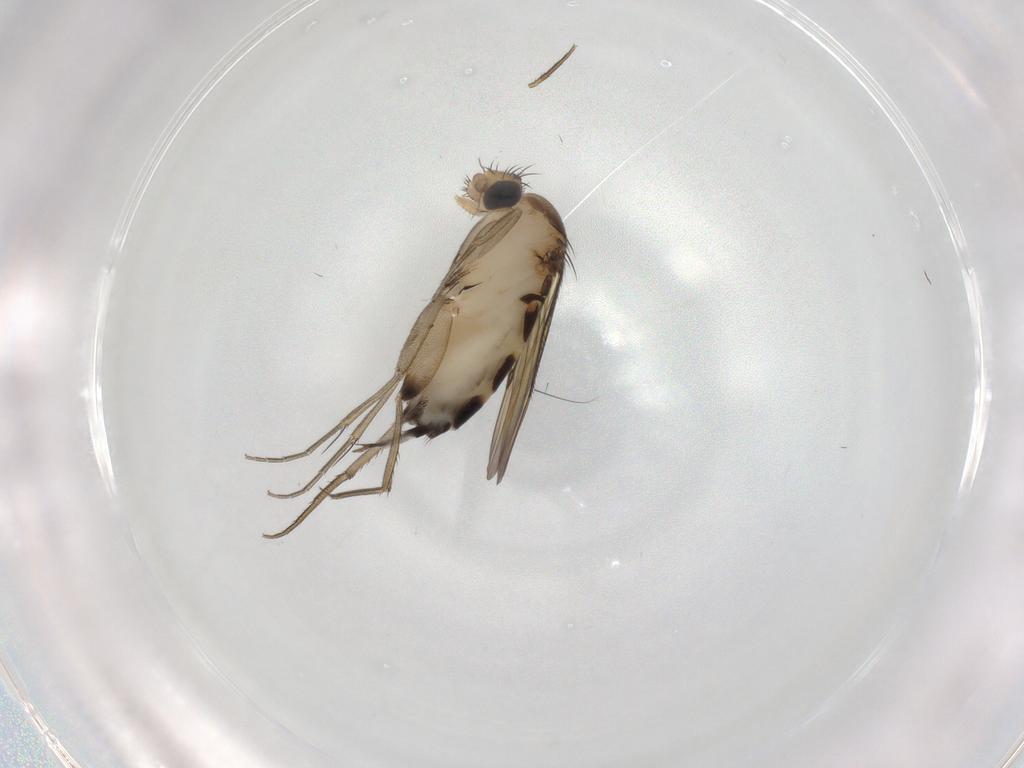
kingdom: Animalia
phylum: Arthropoda
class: Insecta
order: Diptera
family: Phoridae
